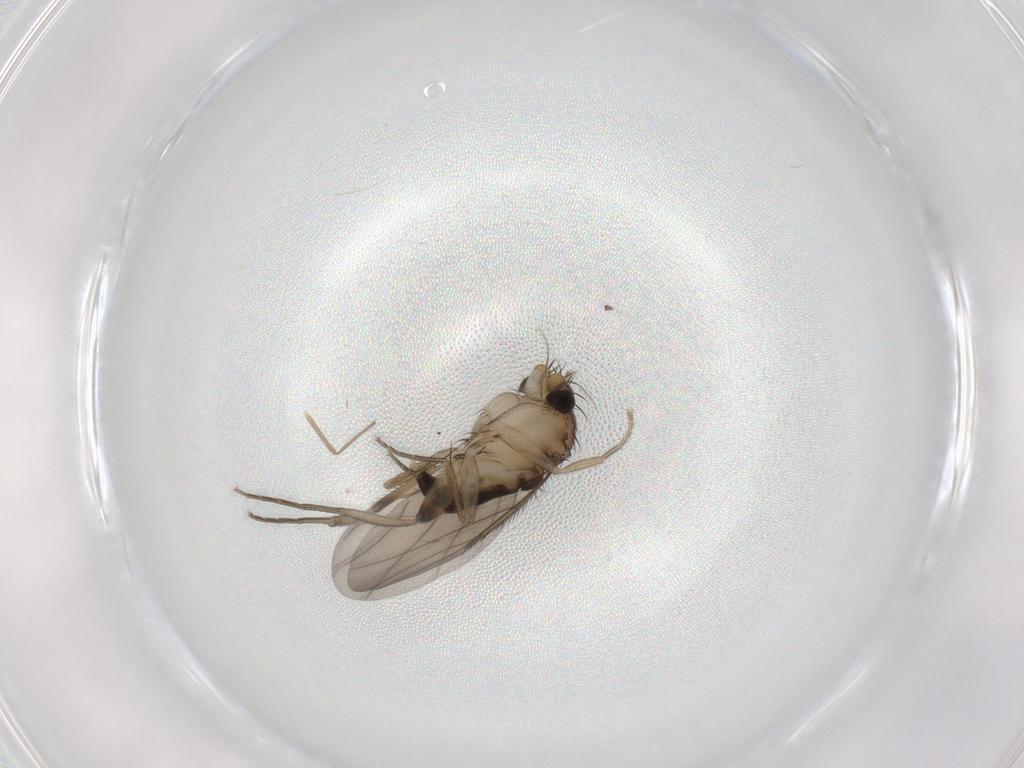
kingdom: Animalia
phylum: Arthropoda
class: Insecta
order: Diptera
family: Phoridae
